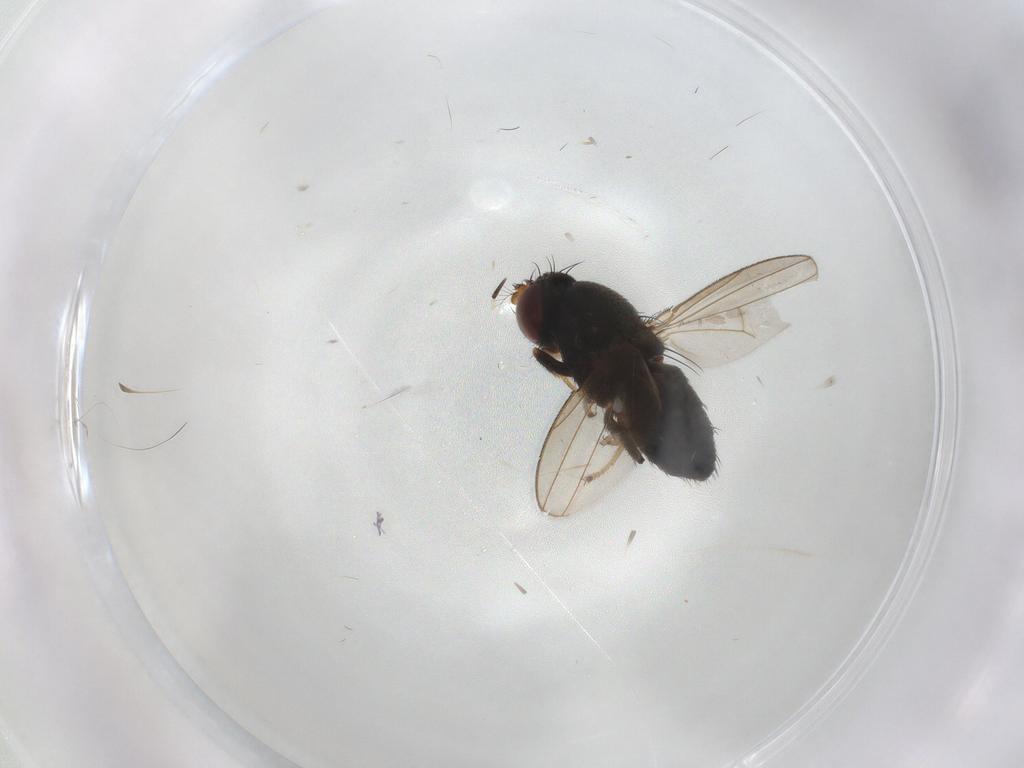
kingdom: Animalia
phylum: Arthropoda
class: Insecta
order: Diptera
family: Ephydridae
